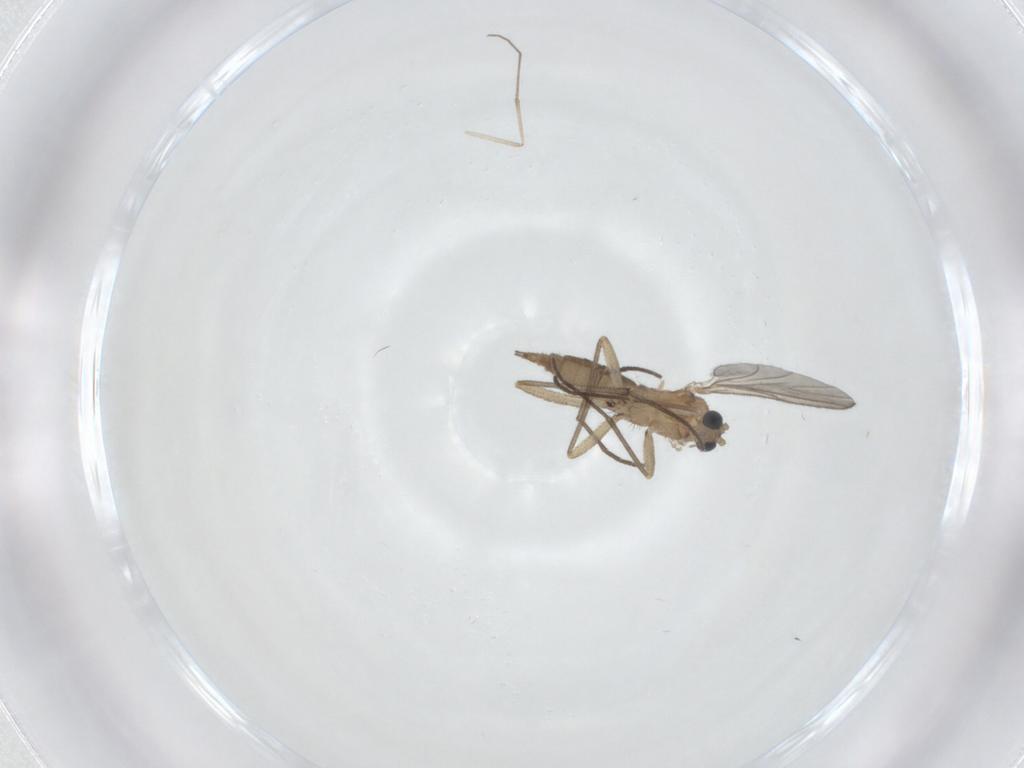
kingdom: Animalia
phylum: Arthropoda
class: Insecta
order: Diptera
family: Sciaridae
